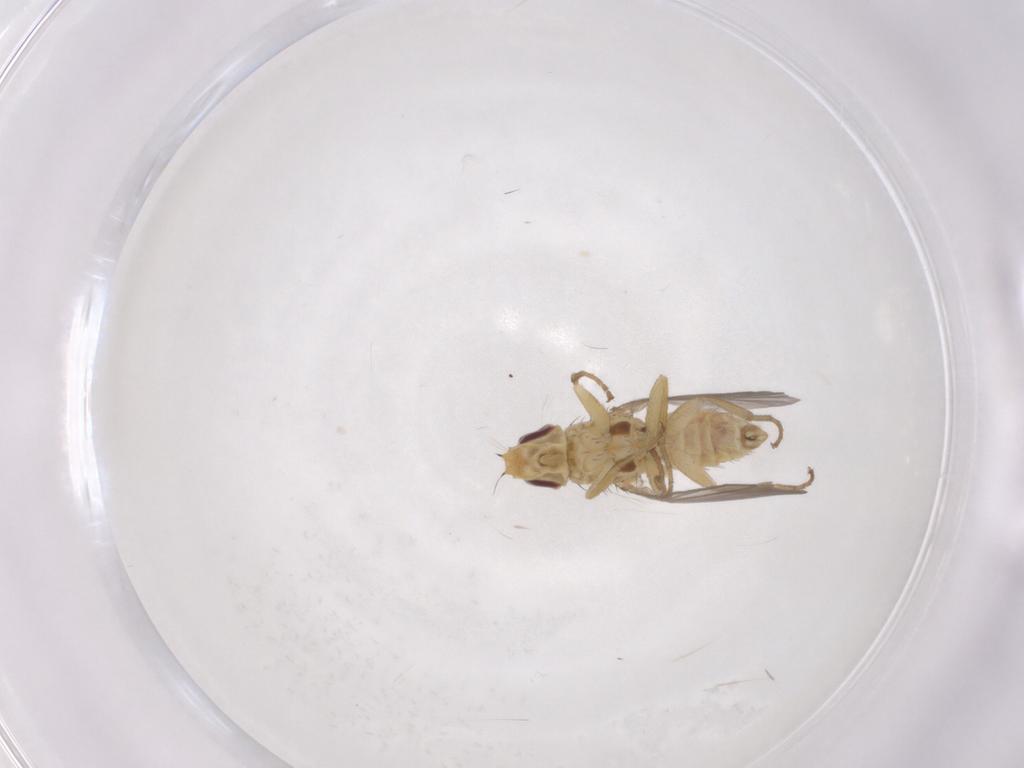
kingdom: Animalia
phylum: Arthropoda
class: Insecta
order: Diptera
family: Agromyzidae
